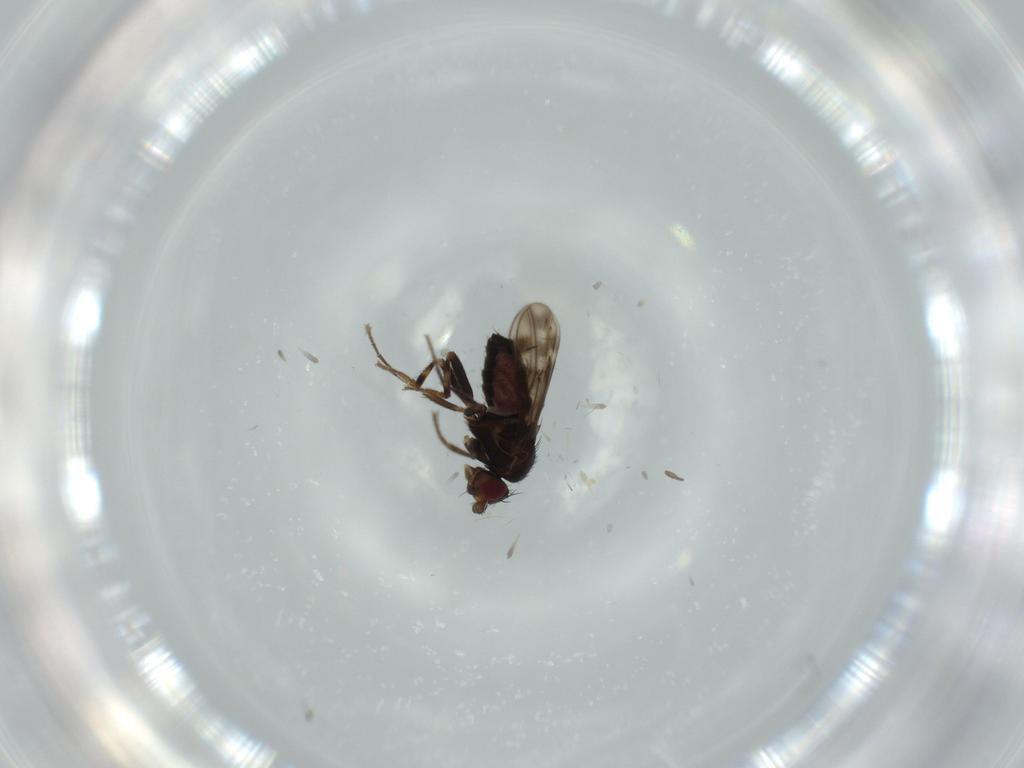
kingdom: Animalia
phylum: Arthropoda
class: Insecta
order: Diptera
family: Sphaeroceridae
